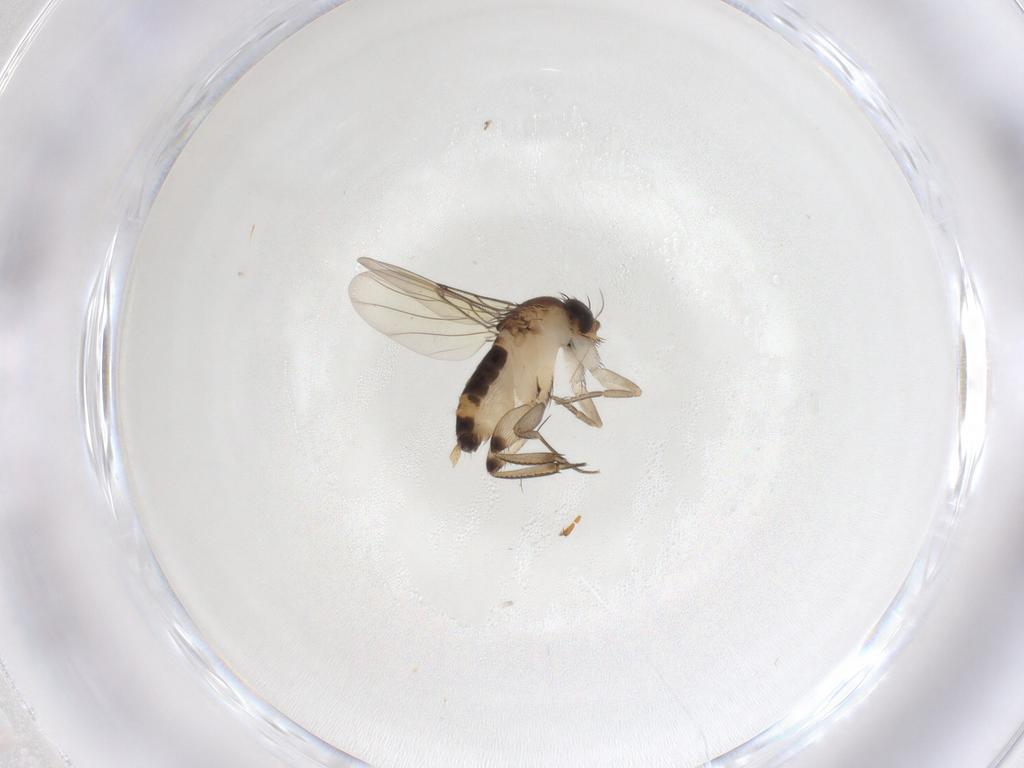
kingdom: Animalia
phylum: Arthropoda
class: Insecta
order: Diptera
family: Phoridae
